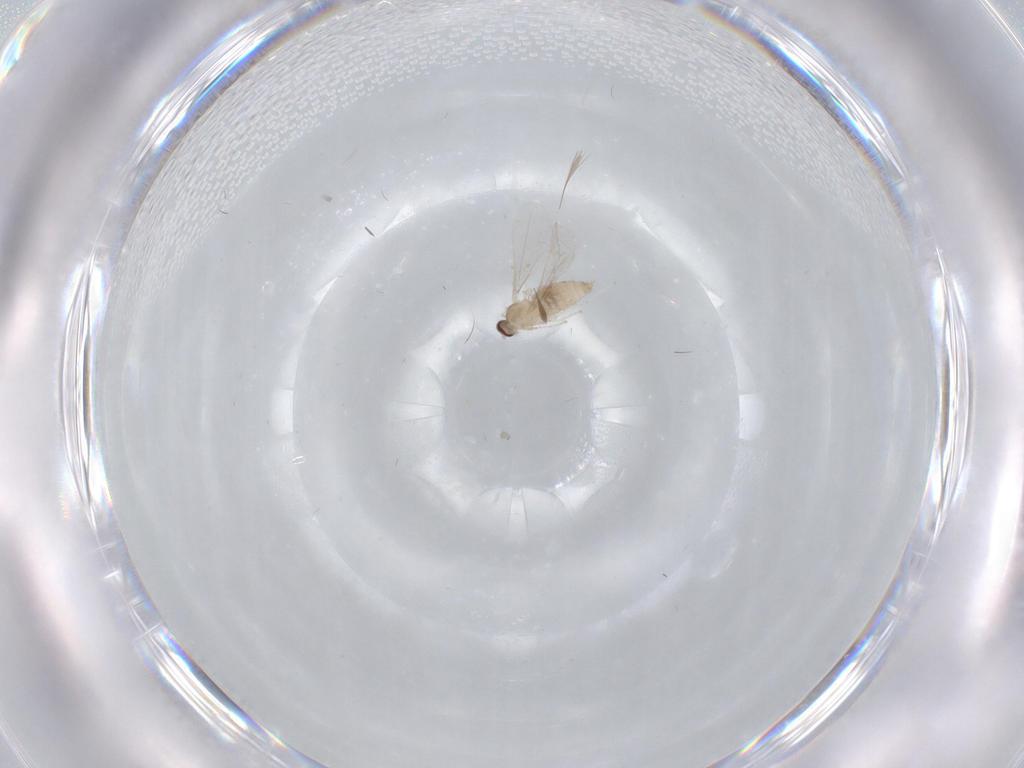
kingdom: Animalia
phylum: Arthropoda
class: Insecta
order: Diptera
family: Cecidomyiidae
